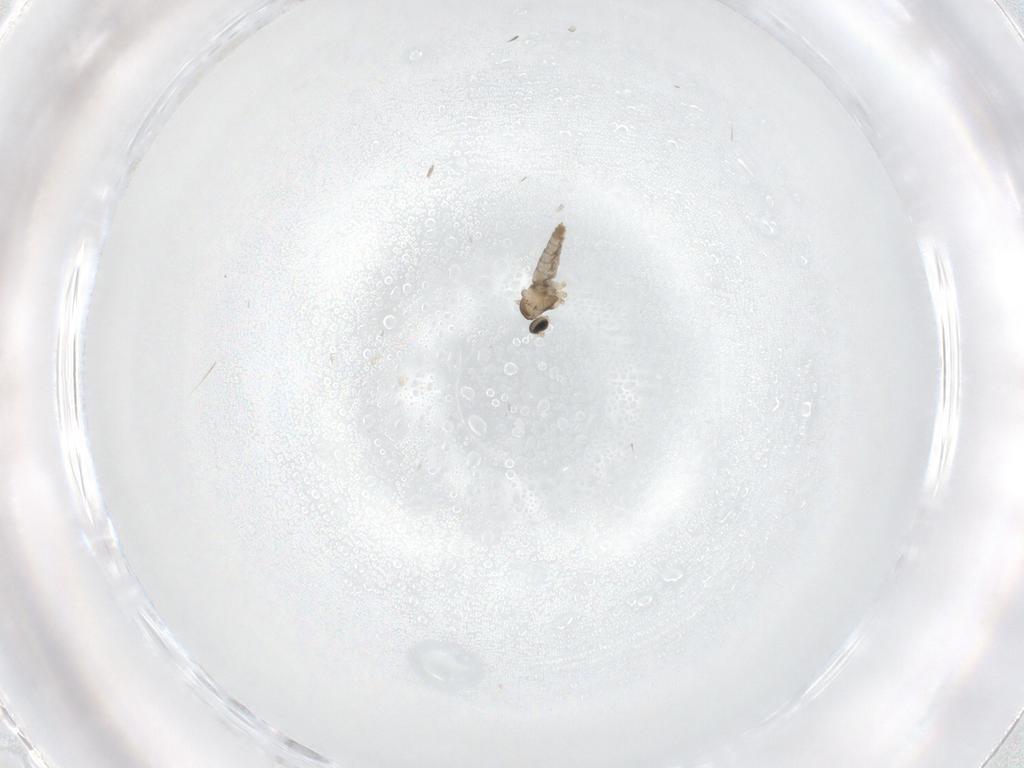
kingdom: Animalia
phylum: Arthropoda
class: Insecta
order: Diptera
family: Cecidomyiidae
